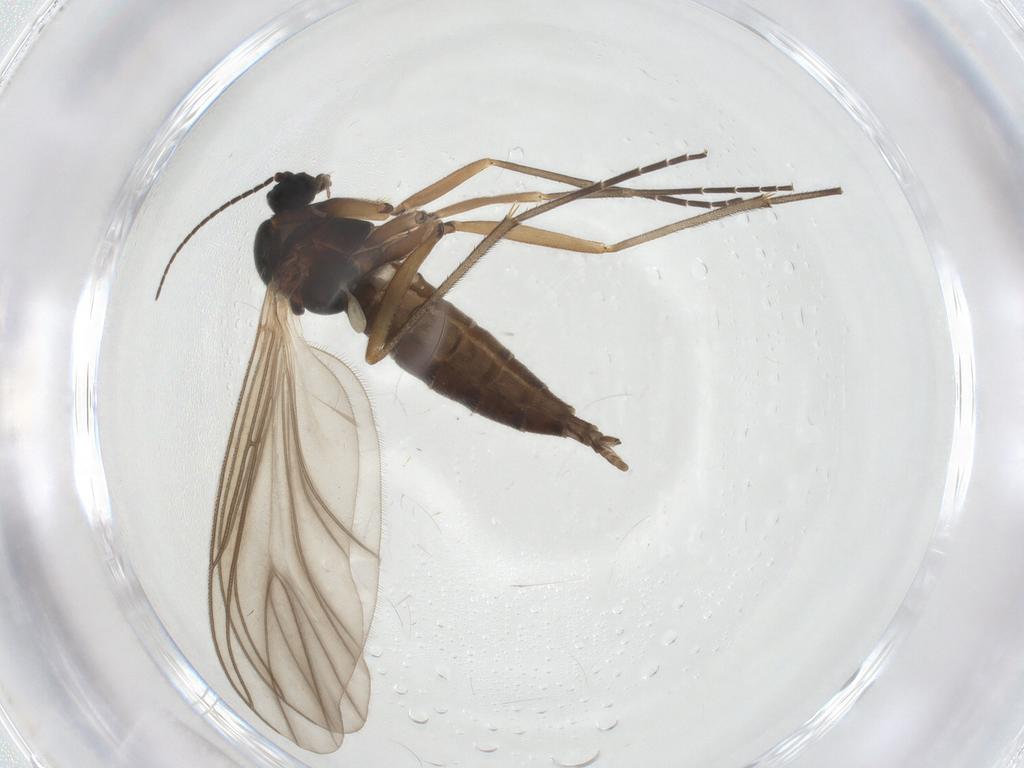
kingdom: Animalia
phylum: Arthropoda
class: Insecta
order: Diptera
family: Sciaridae
